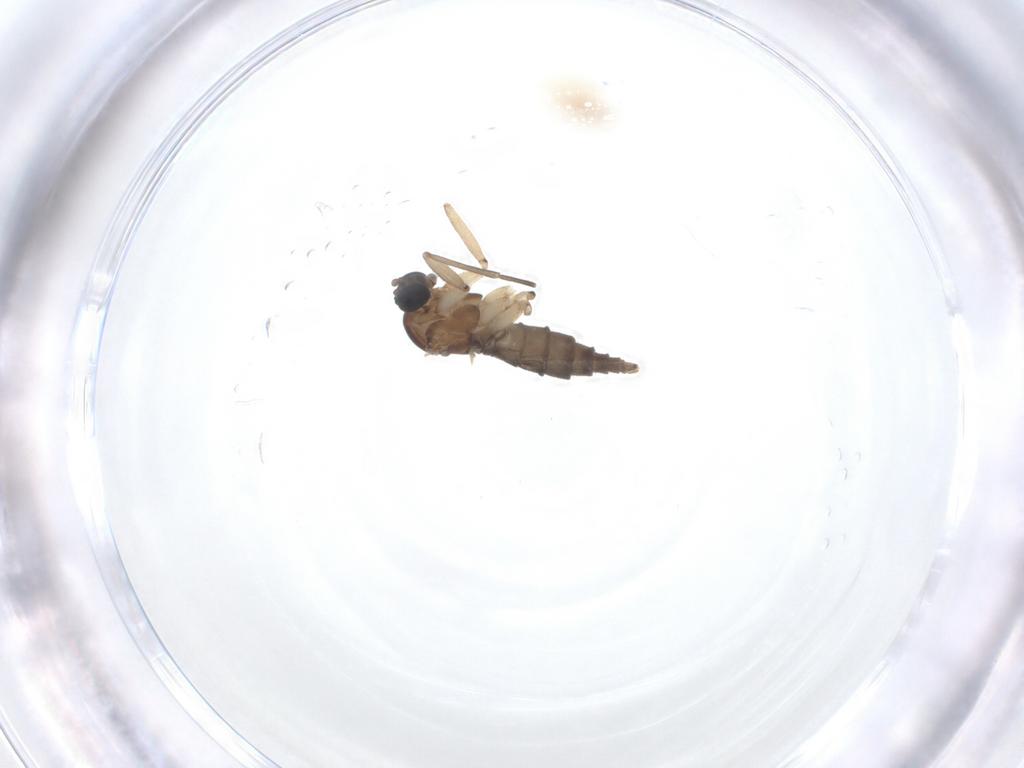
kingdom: Animalia
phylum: Arthropoda
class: Insecta
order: Diptera
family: Sciaridae
